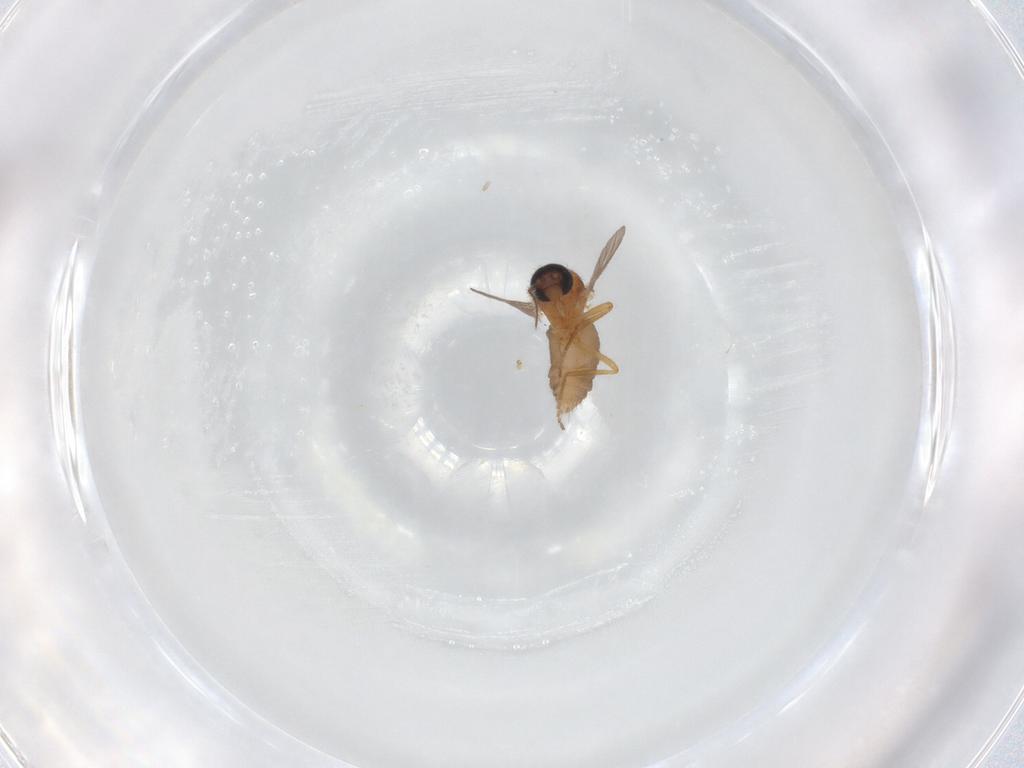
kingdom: Animalia
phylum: Arthropoda
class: Insecta
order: Diptera
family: Ceratopogonidae
